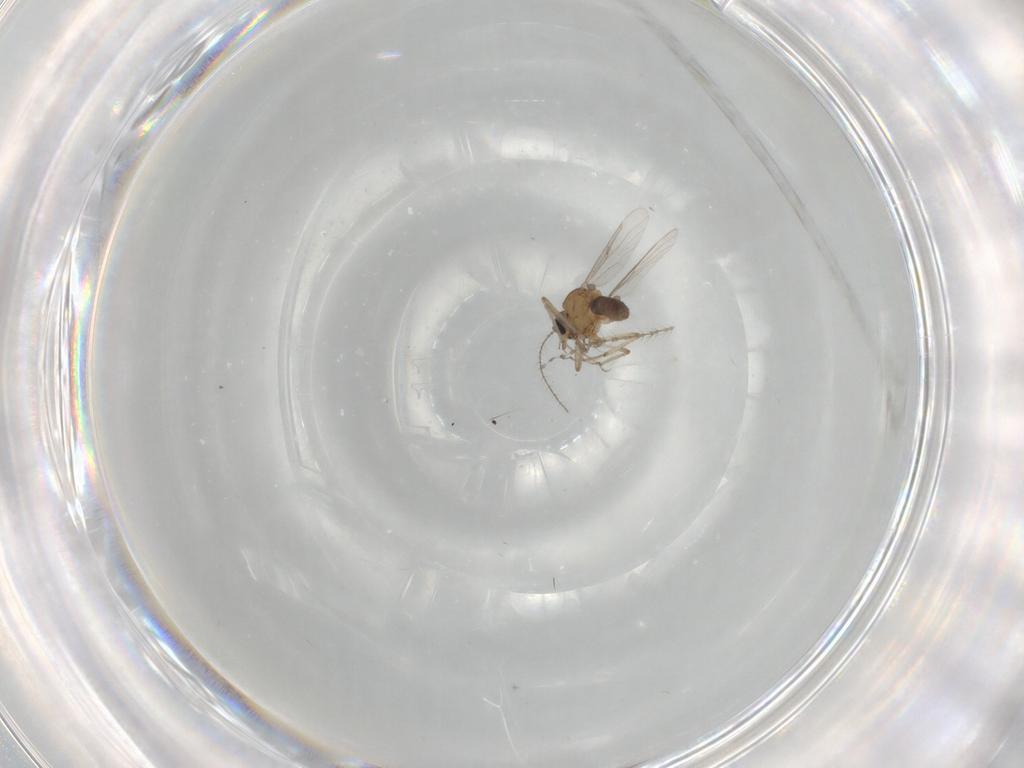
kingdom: Animalia
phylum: Arthropoda
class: Insecta
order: Diptera
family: Ceratopogonidae
